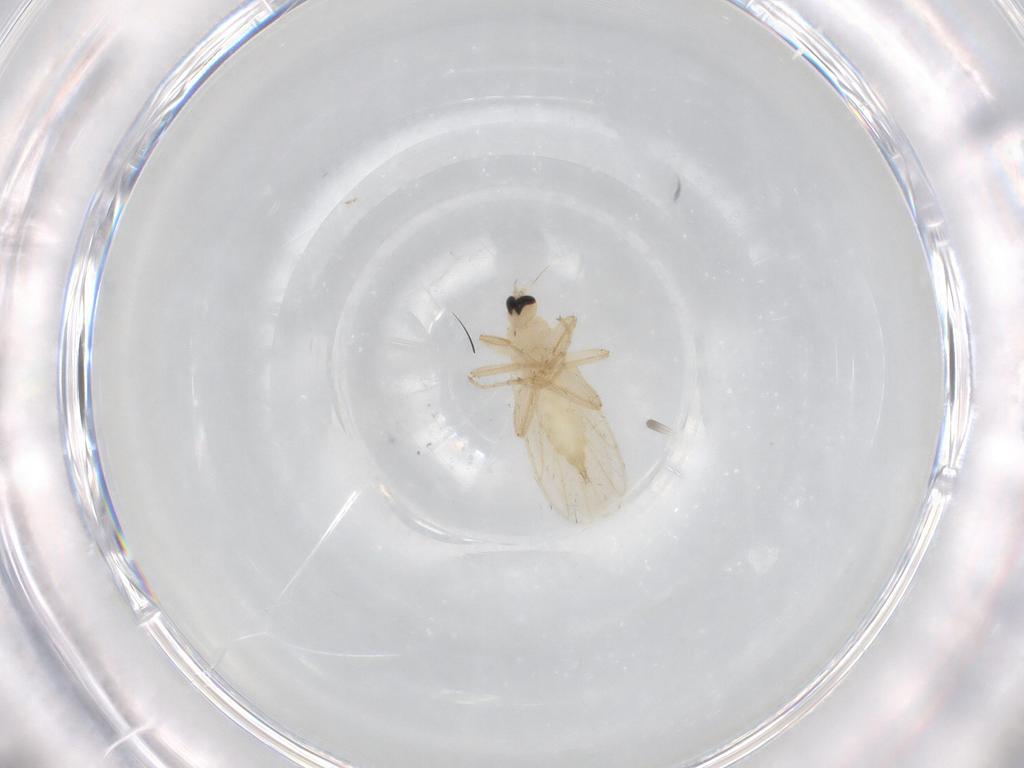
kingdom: Animalia
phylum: Arthropoda
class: Insecta
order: Diptera
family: Hybotidae
